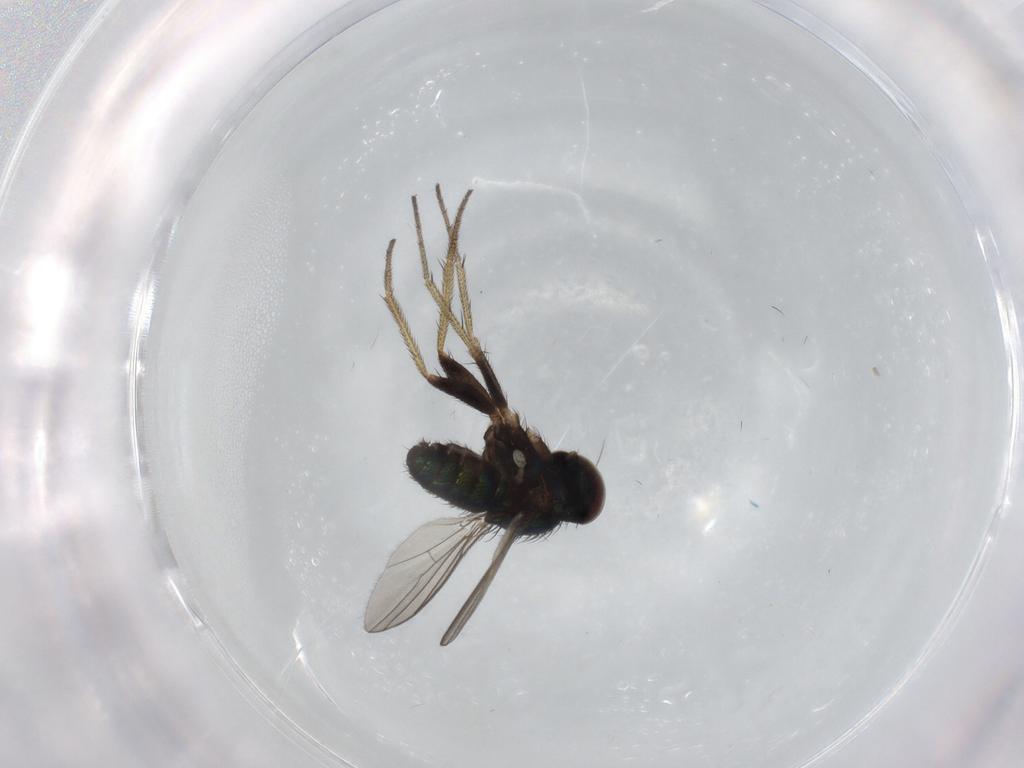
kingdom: Animalia
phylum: Arthropoda
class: Insecta
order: Diptera
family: Dolichopodidae
